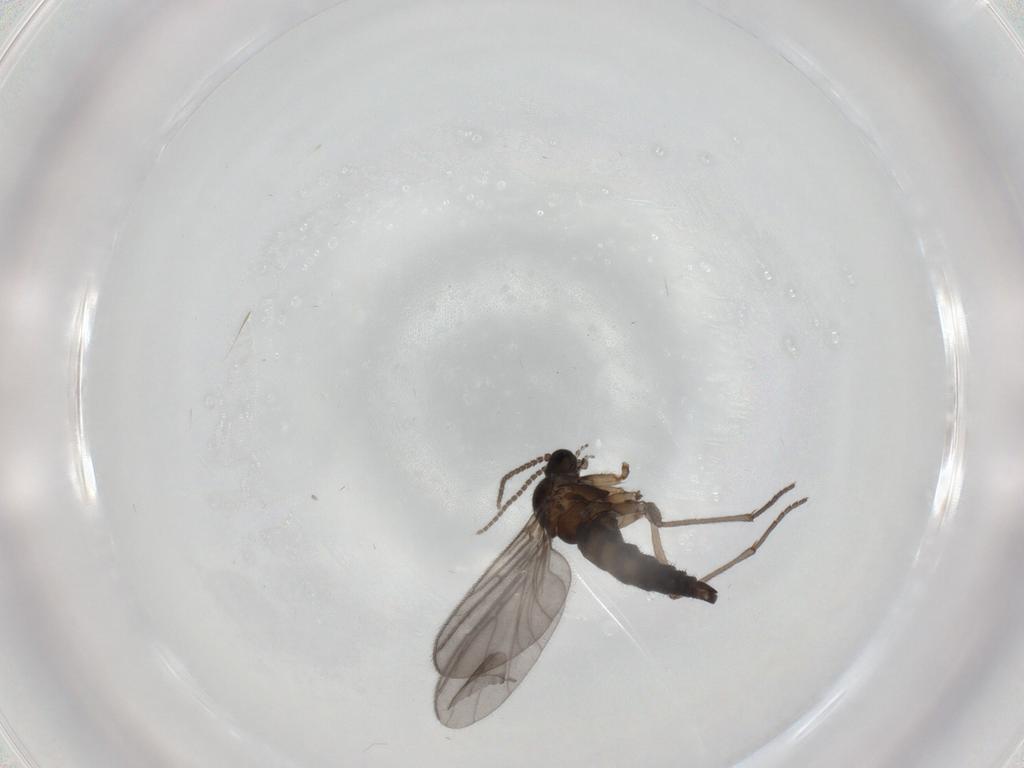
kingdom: Animalia
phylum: Arthropoda
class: Insecta
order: Diptera
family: Sciaridae
